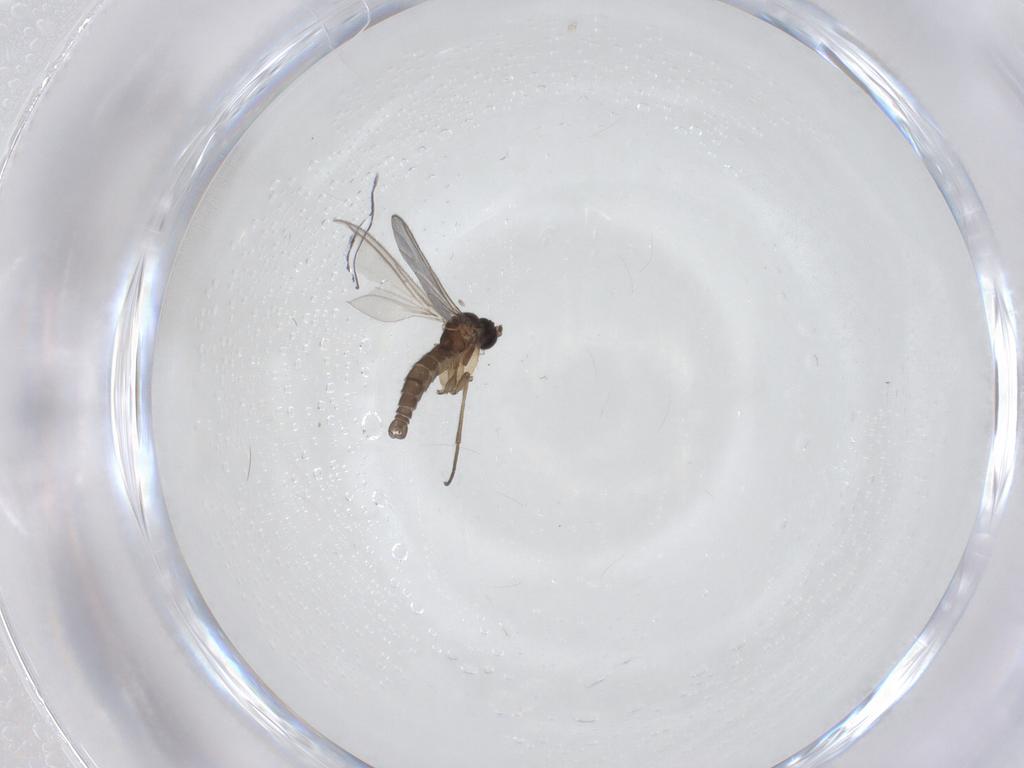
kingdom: Animalia
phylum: Arthropoda
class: Insecta
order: Diptera
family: Sciaridae
